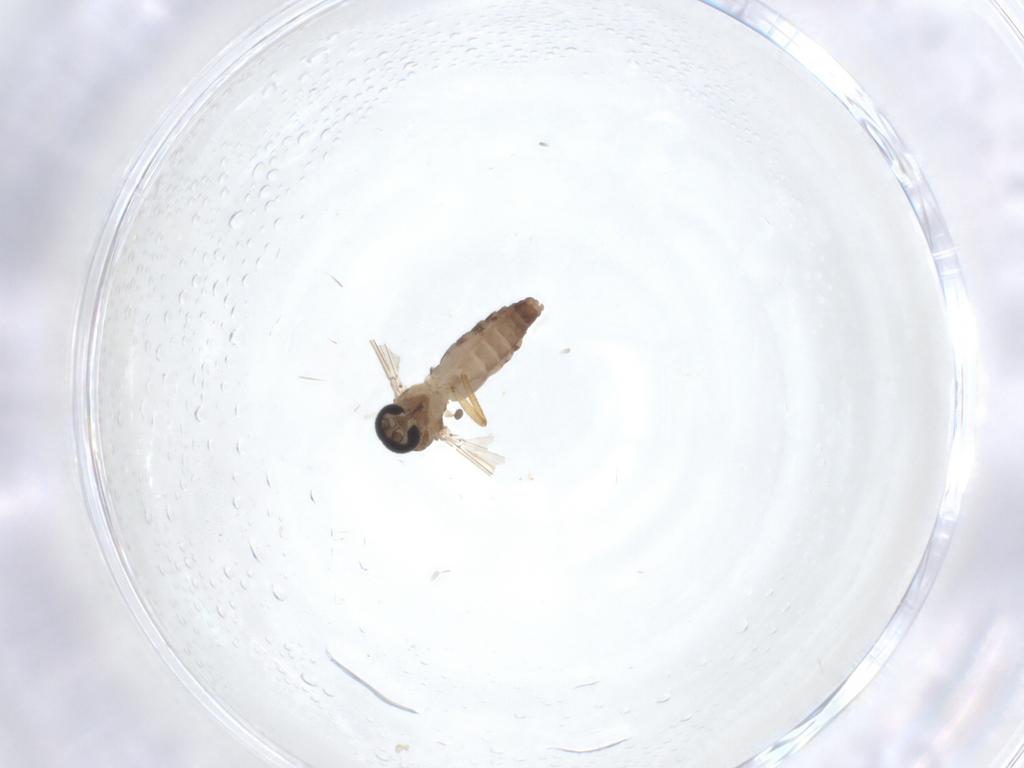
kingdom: Animalia
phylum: Arthropoda
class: Insecta
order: Diptera
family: Ceratopogonidae
